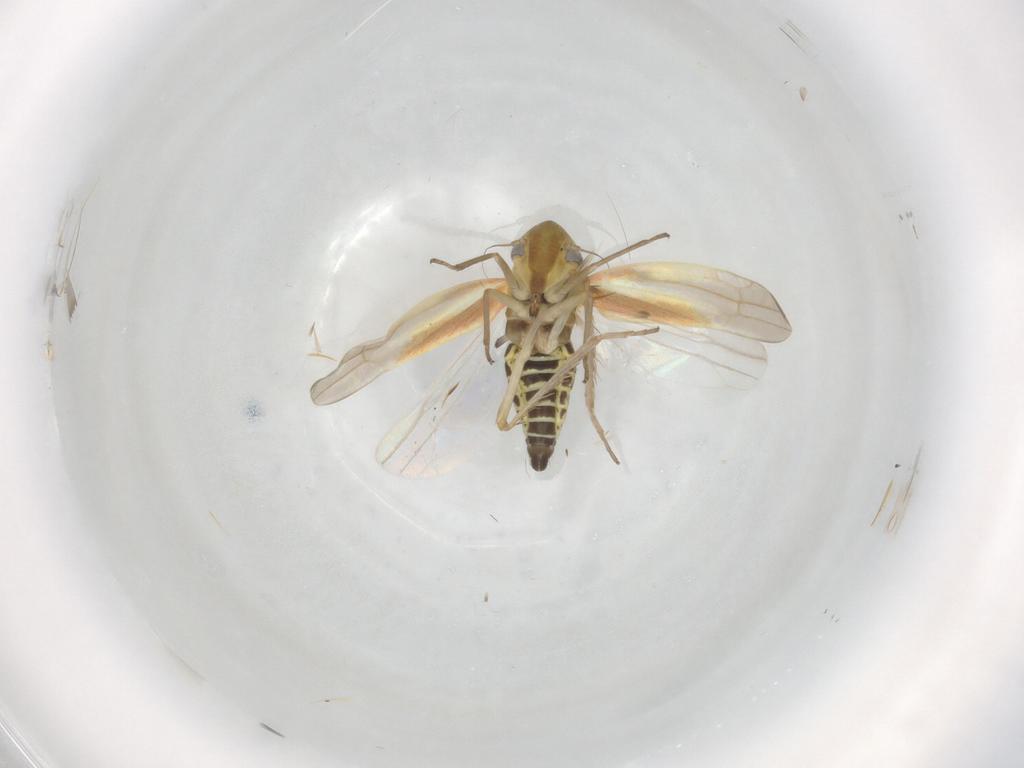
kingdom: Animalia
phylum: Arthropoda
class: Insecta
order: Hemiptera
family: Cicadellidae
